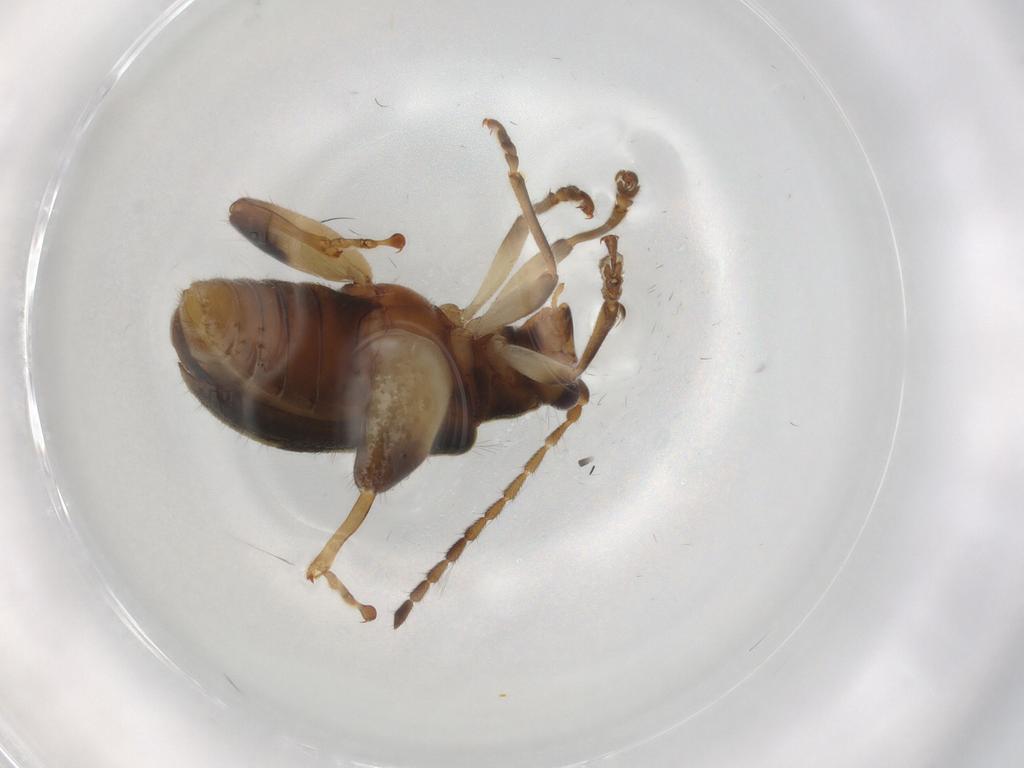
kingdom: Animalia
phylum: Arthropoda
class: Insecta
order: Coleoptera
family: Chrysomelidae
